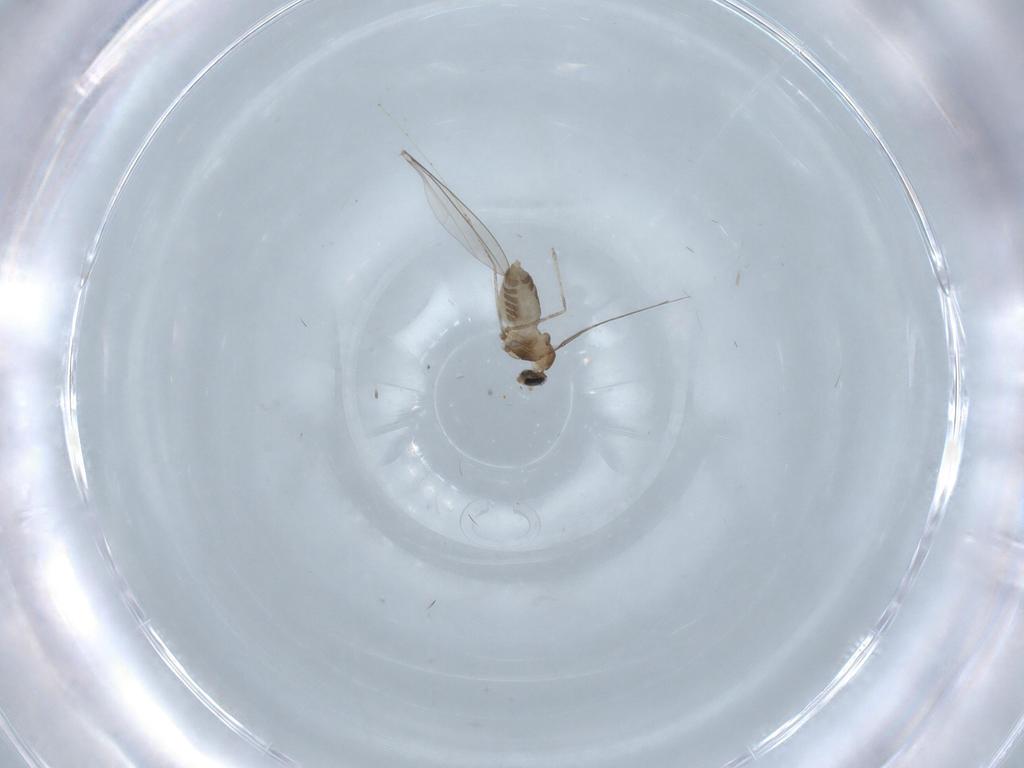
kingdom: Animalia
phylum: Arthropoda
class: Insecta
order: Diptera
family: Cecidomyiidae
